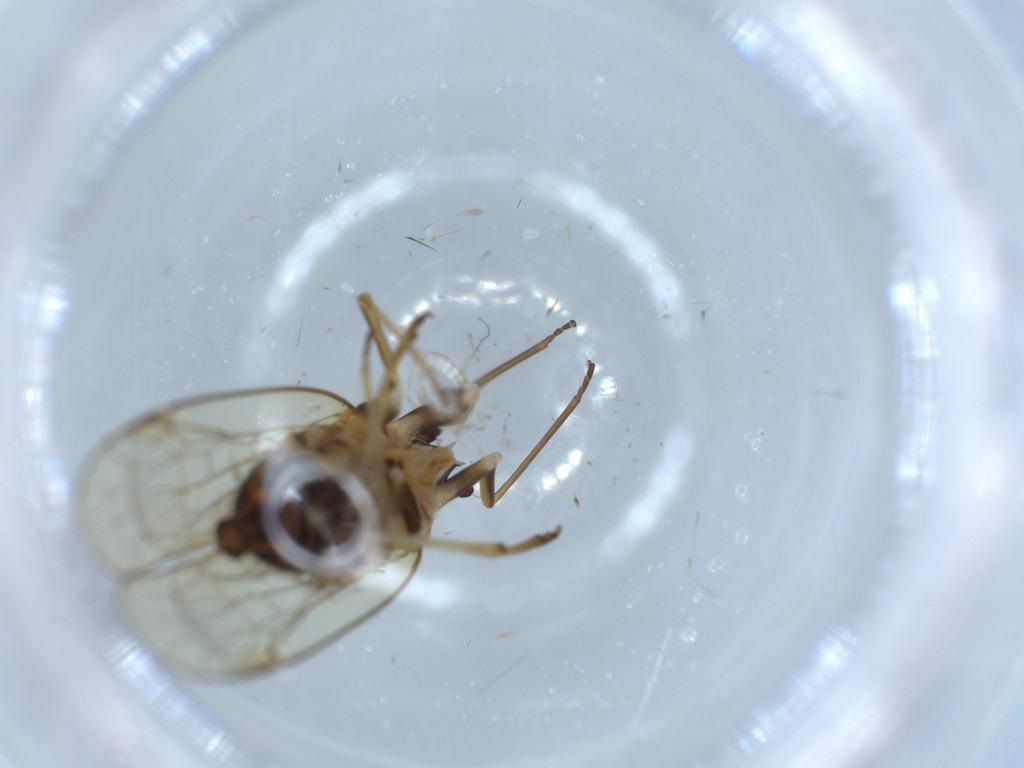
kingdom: Animalia
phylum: Arthropoda
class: Insecta
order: Hemiptera
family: Kinnaridae
